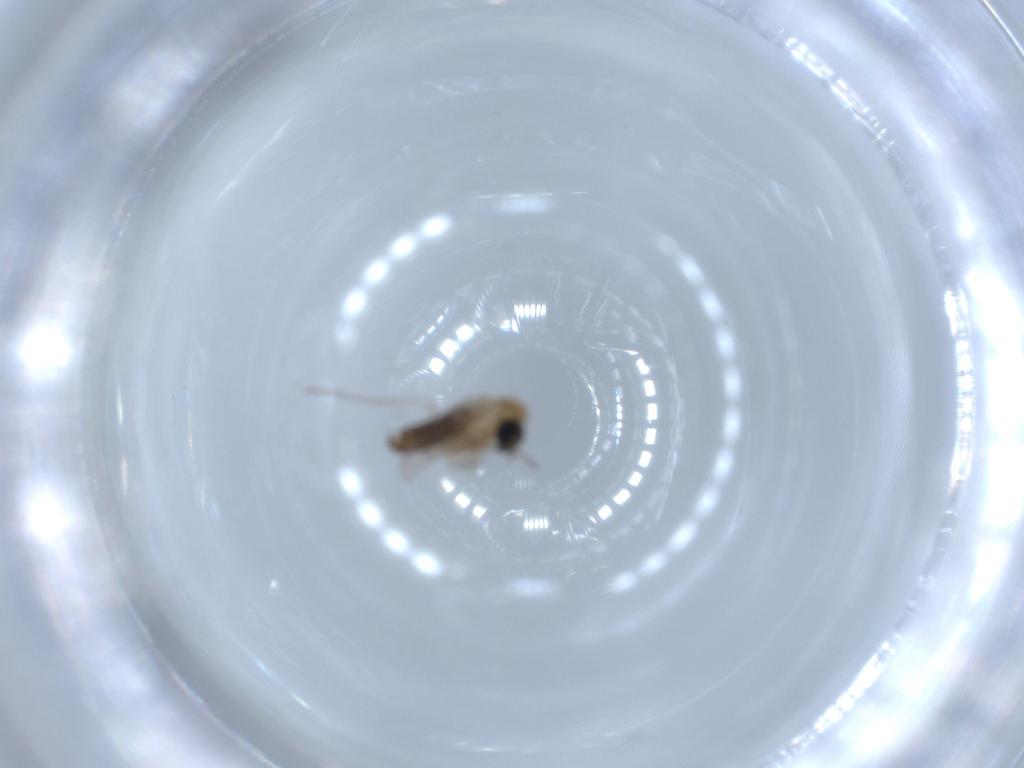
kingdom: Animalia
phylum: Arthropoda
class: Insecta
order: Diptera
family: Psychodidae
